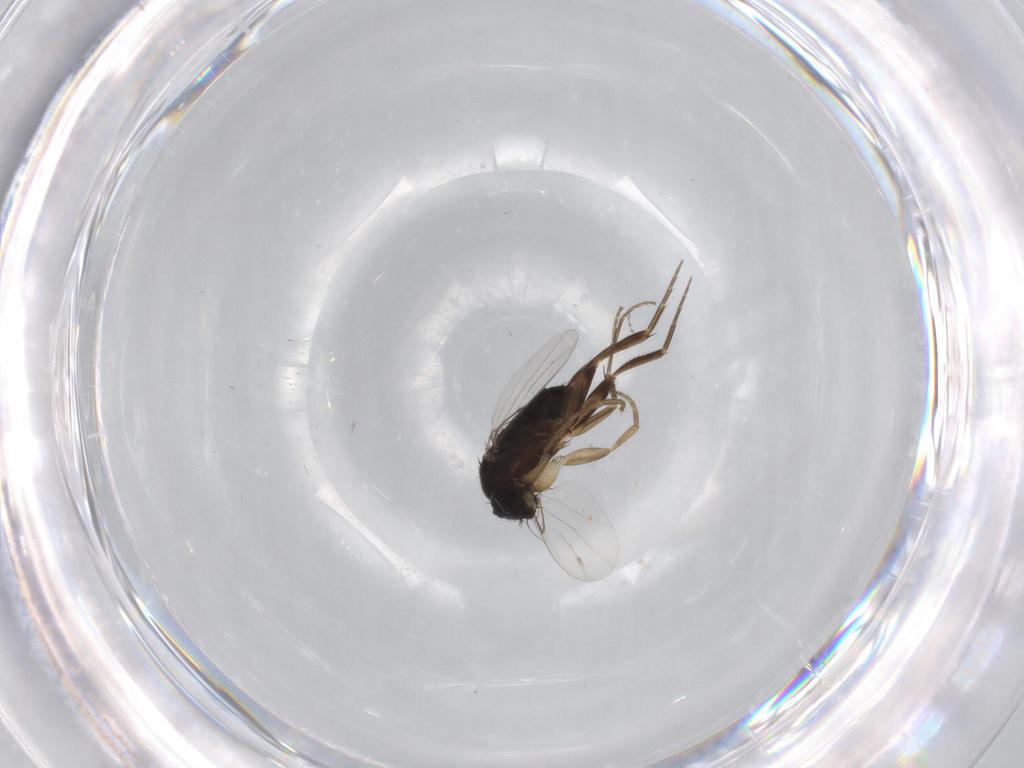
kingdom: Animalia
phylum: Arthropoda
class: Insecta
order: Diptera
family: Phoridae
